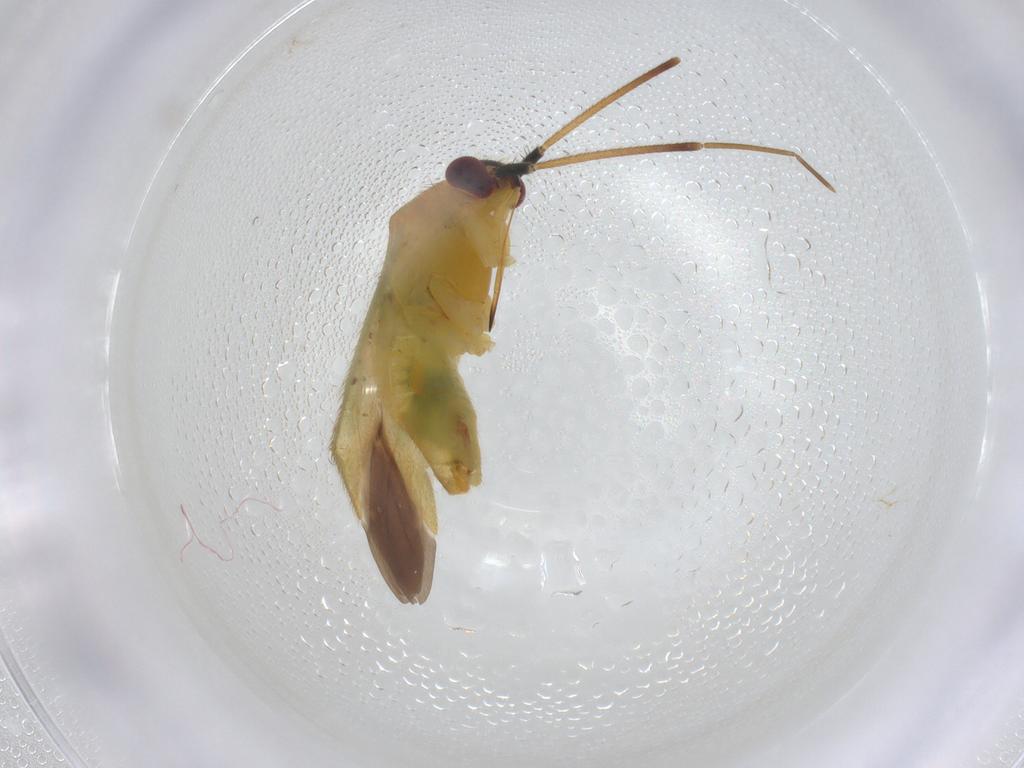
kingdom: Animalia
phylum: Arthropoda
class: Insecta
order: Hemiptera
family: Miridae
